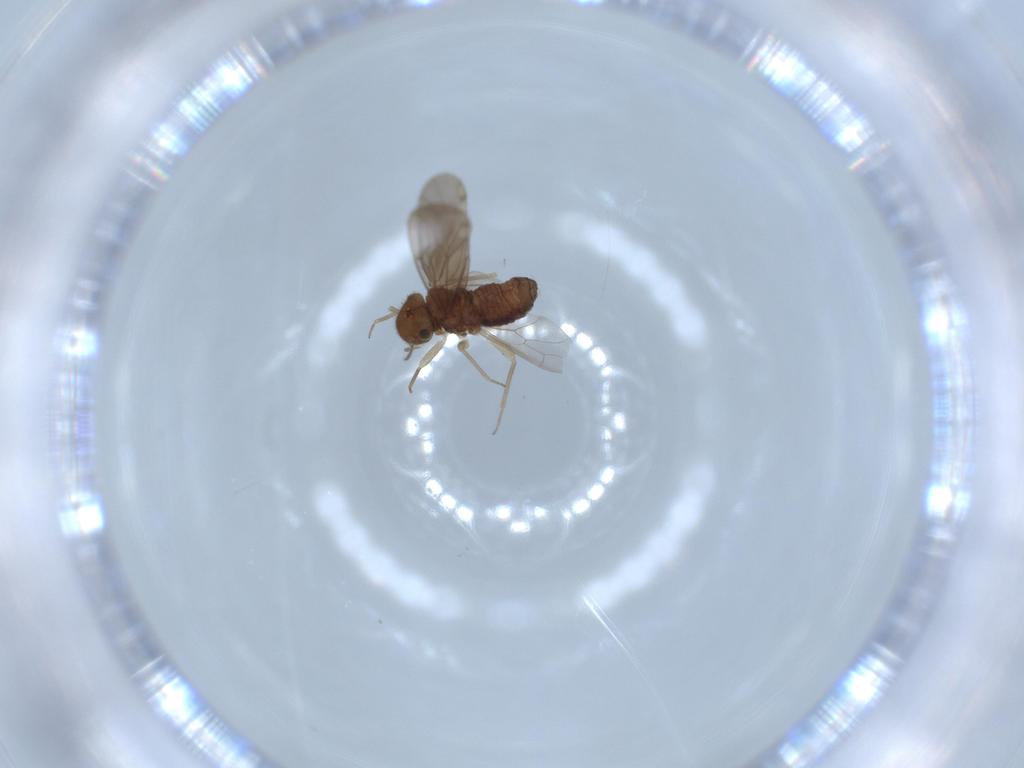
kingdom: Animalia
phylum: Arthropoda
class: Insecta
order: Psocodea
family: Ectopsocidae
